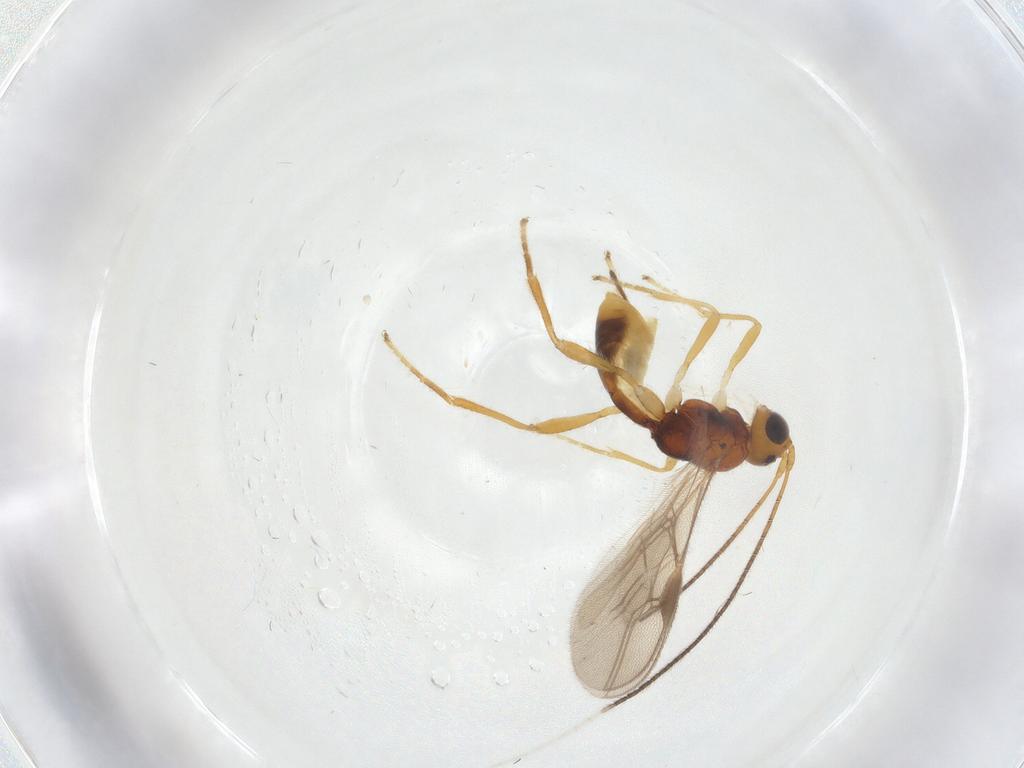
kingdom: Animalia
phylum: Arthropoda
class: Insecta
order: Hymenoptera
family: Braconidae
